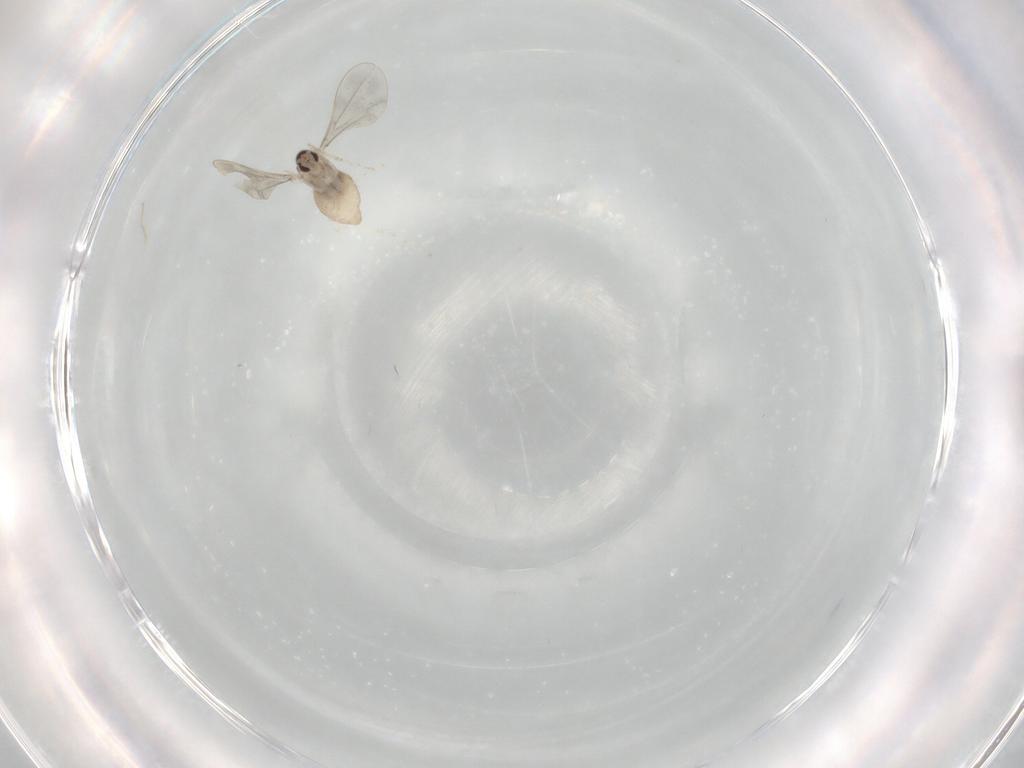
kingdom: Animalia
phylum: Arthropoda
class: Insecta
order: Diptera
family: Cecidomyiidae
